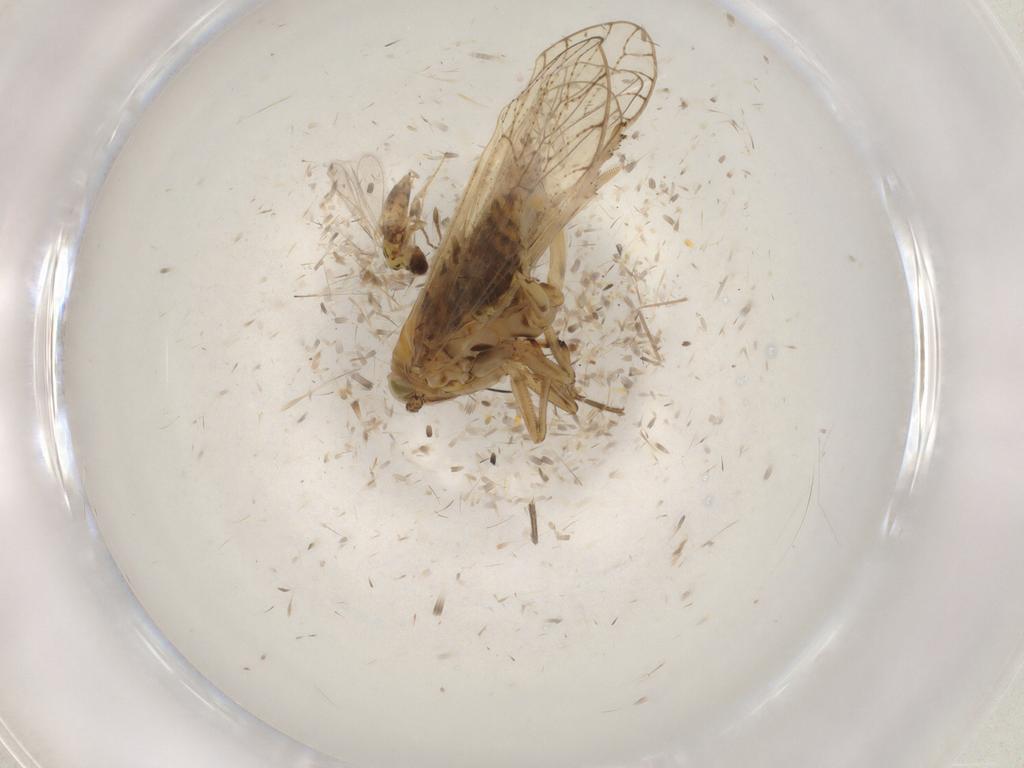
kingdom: Animalia
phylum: Arthropoda
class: Insecta
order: Diptera
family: Cecidomyiidae
